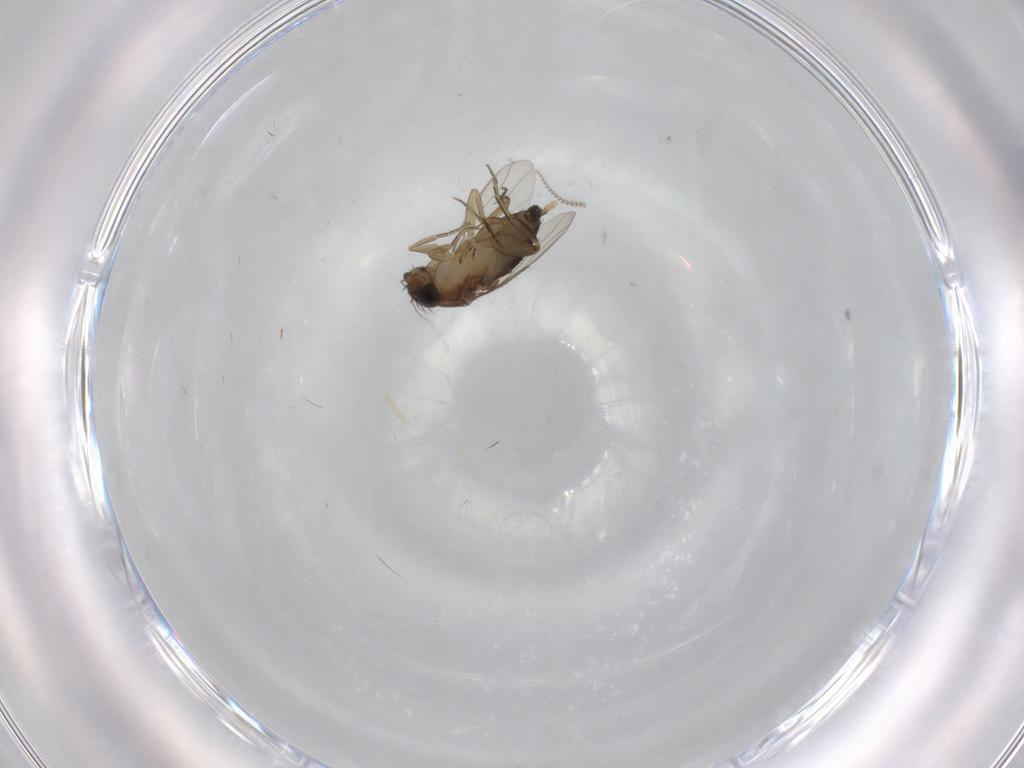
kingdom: Animalia
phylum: Arthropoda
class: Insecta
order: Diptera
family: Phoridae
